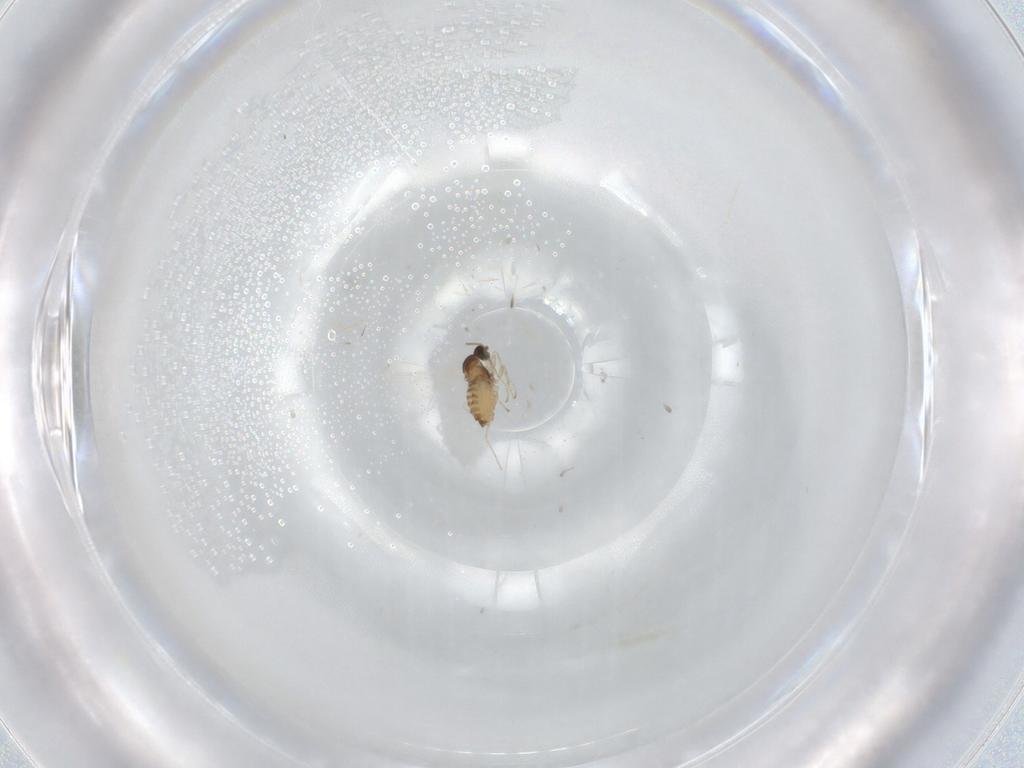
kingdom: Animalia
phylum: Arthropoda
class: Insecta
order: Diptera
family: Cecidomyiidae
